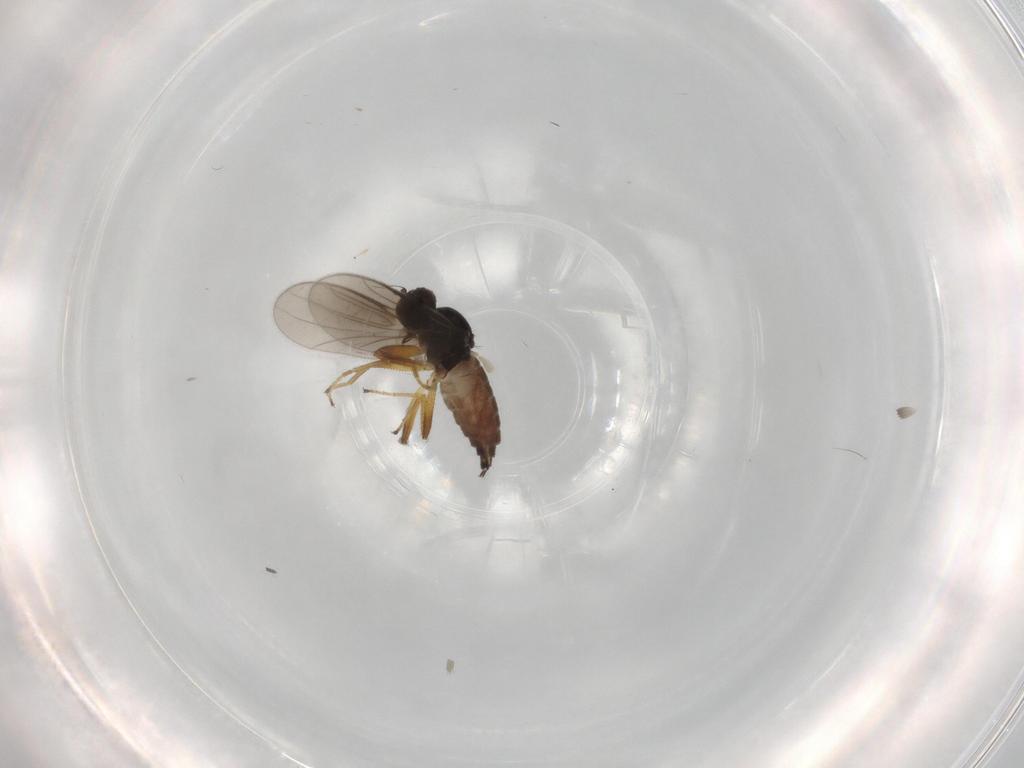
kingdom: Animalia
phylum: Arthropoda
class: Insecta
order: Diptera
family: Hybotidae
